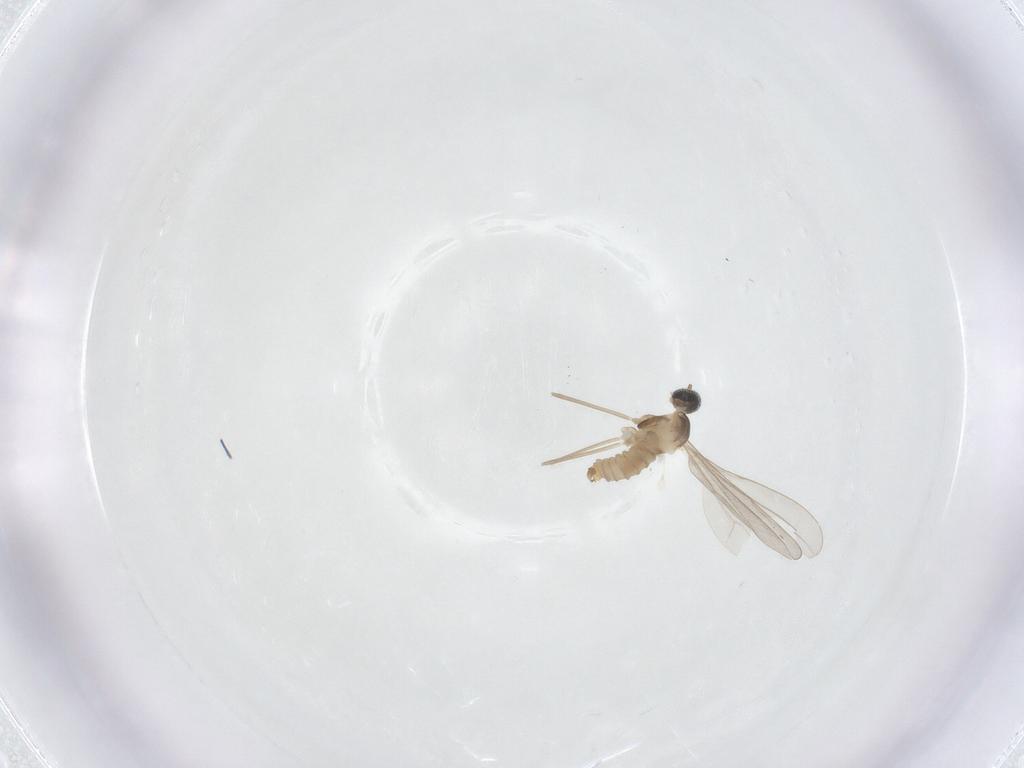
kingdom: Animalia
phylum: Arthropoda
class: Insecta
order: Diptera
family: Cecidomyiidae
